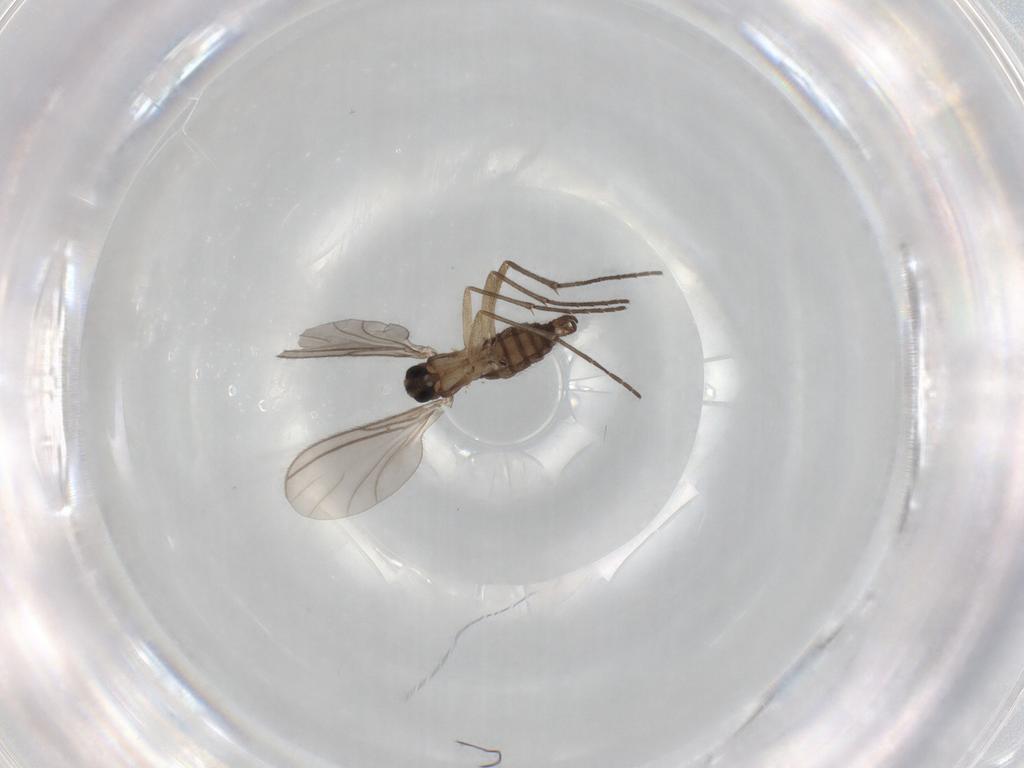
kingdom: Animalia
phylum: Arthropoda
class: Insecta
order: Diptera
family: Sciaridae
